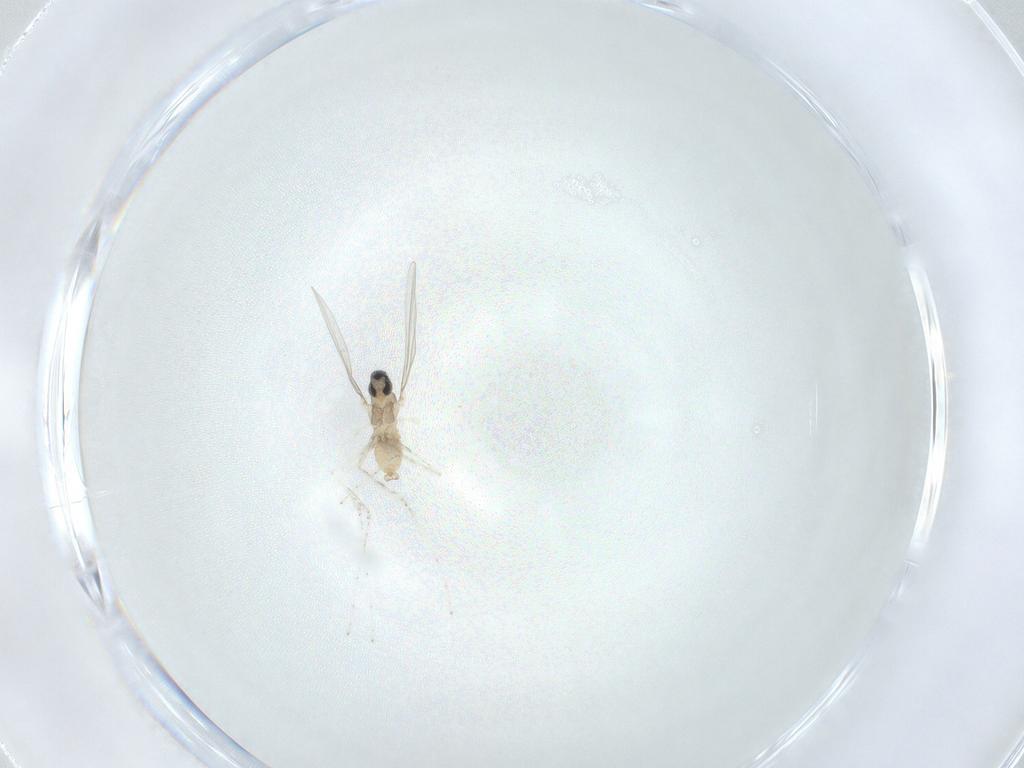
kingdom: Animalia
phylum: Arthropoda
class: Insecta
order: Diptera
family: Cecidomyiidae
